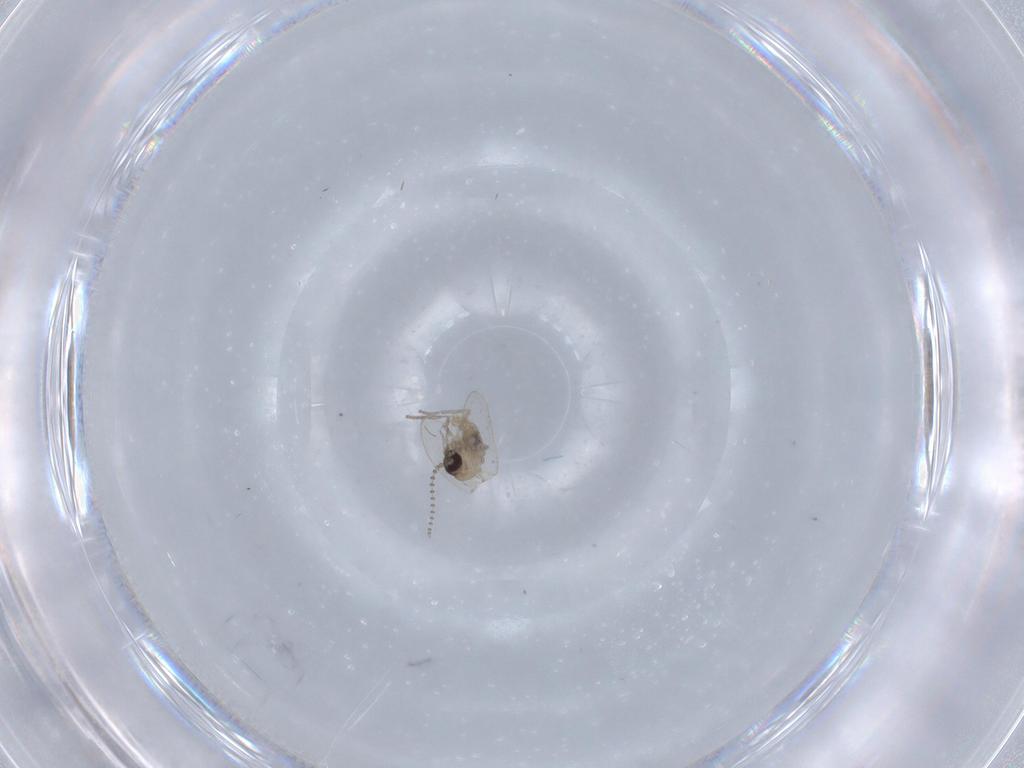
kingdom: Animalia
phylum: Arthropoda
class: Insecta
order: Diptera
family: Psychodidae
